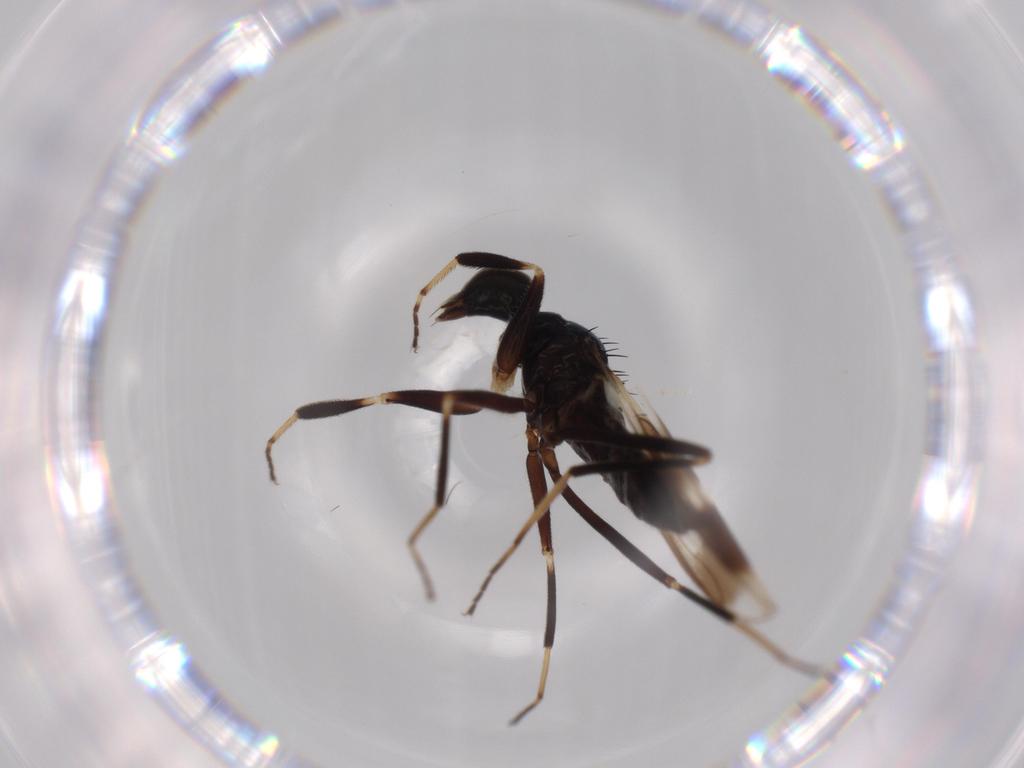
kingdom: Animalia
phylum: Arthropoda
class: Insecta
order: Diptera
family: Hybotidae
